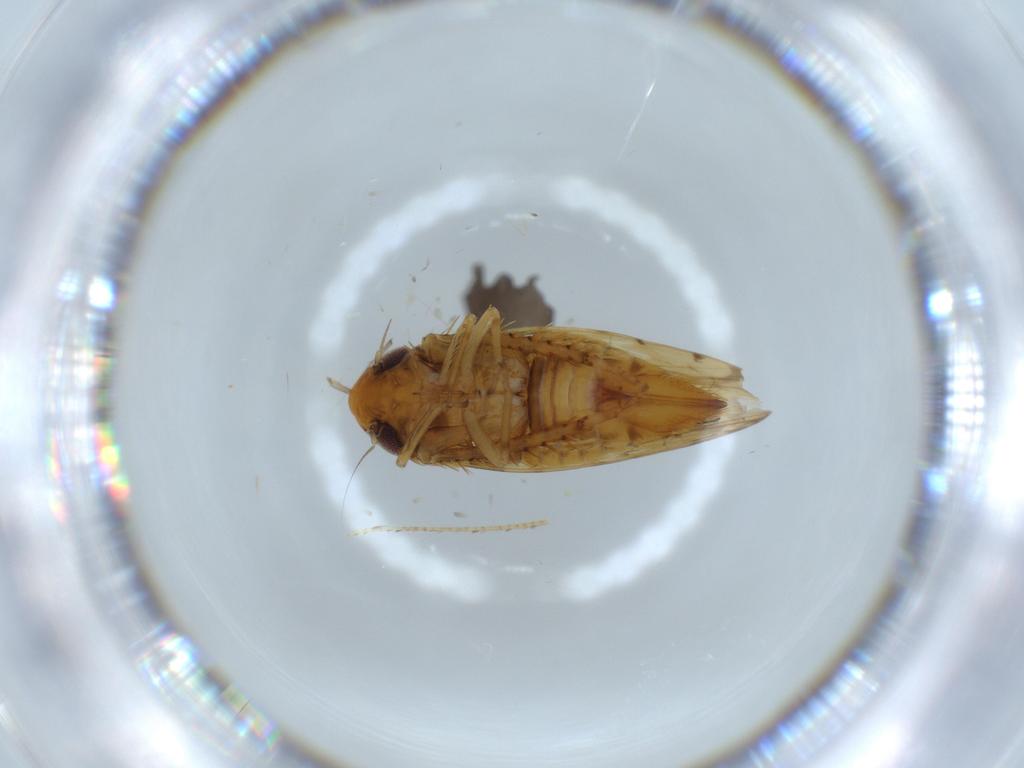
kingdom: Animalia
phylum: Arthropoda
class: Insecta
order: Hemiptera
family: Cicadellidae
